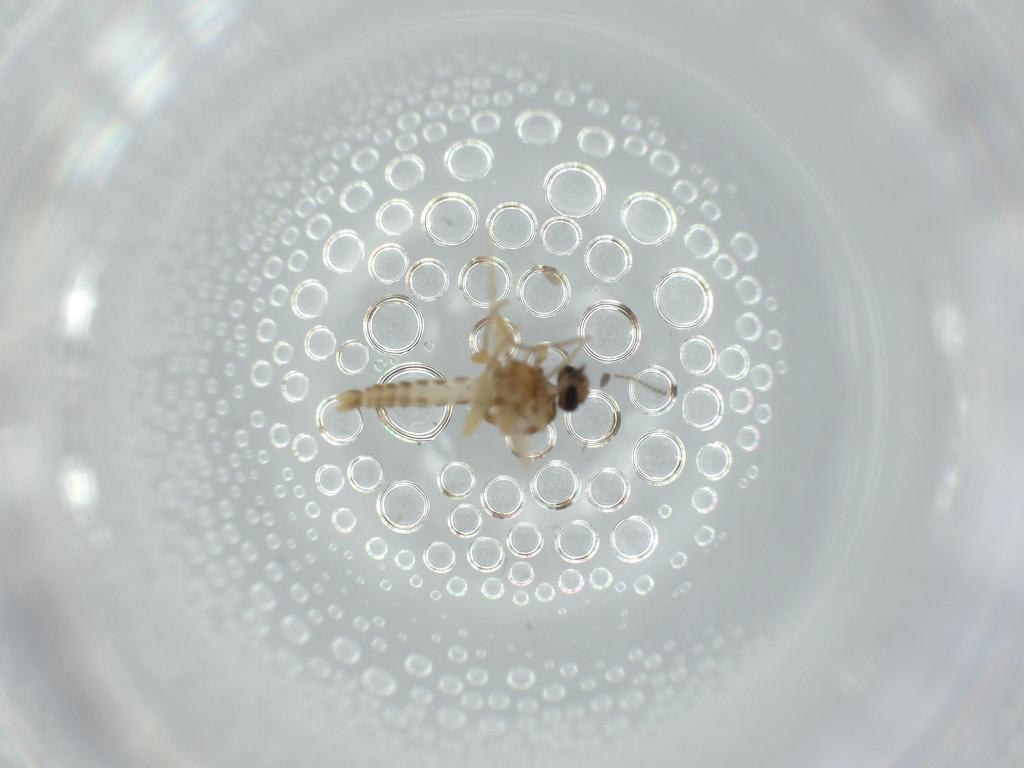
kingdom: Animalia
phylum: Arthropoda
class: Insecta
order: Diptera
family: Ceratopogonidae
